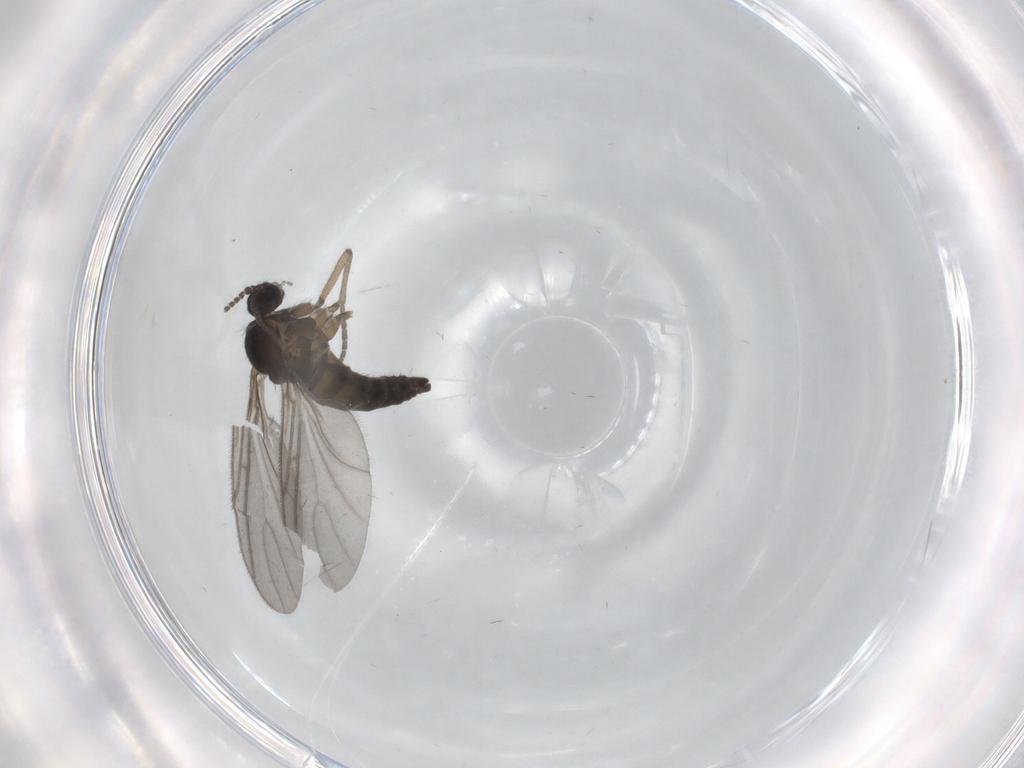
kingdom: Animalia
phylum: Arthropoda
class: Insecta
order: Diptera
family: Sciaridae
